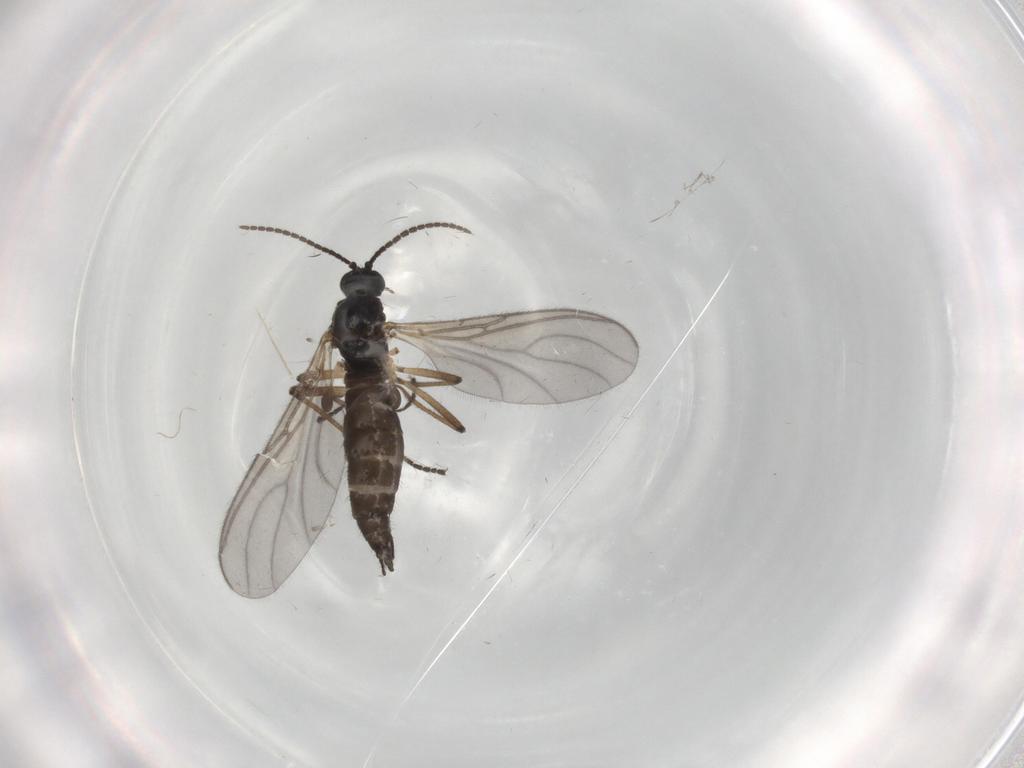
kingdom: Animalia
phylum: Arthropoda
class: Insecta
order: Diptera
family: Sciaridae
